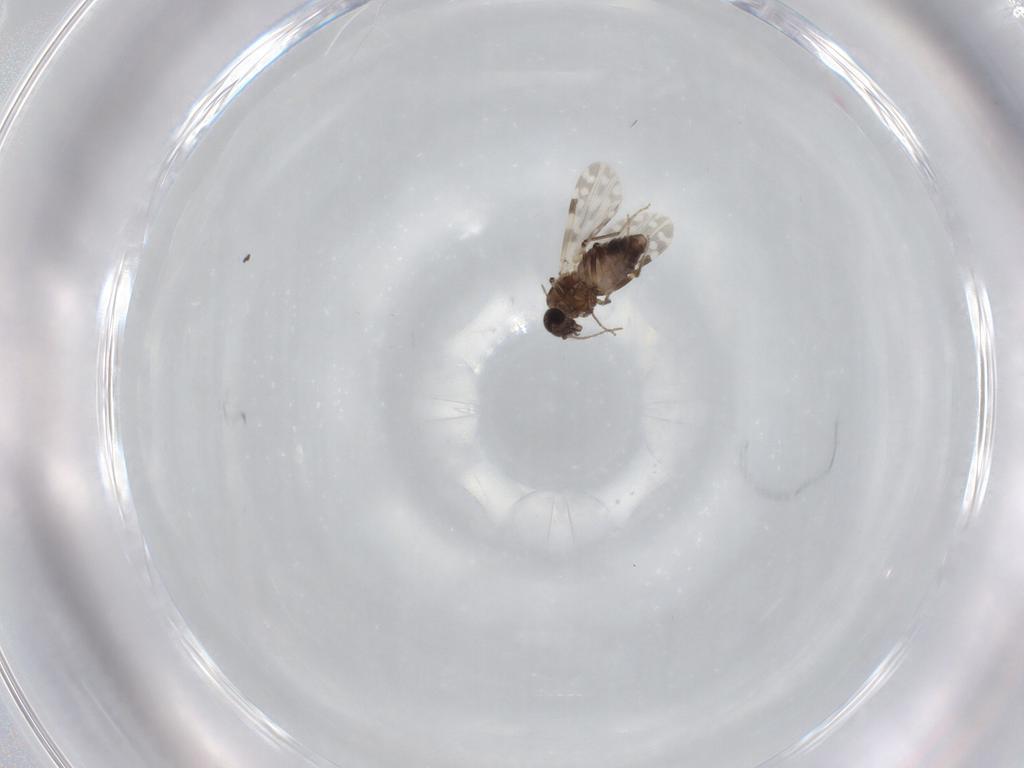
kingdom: Animalia
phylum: Arthropoda
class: Insecta
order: Diptera
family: Ceratopogonidae
